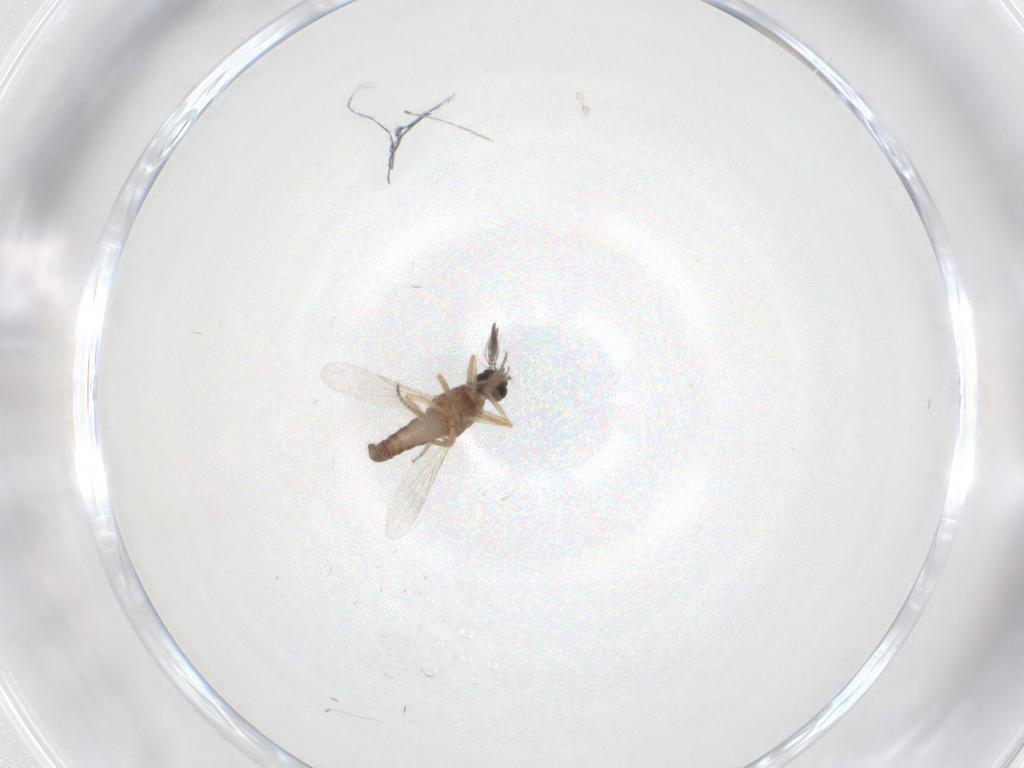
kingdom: Animalia
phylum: Arthropoda
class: Insecta
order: Diptera
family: Ceratopogonidae
